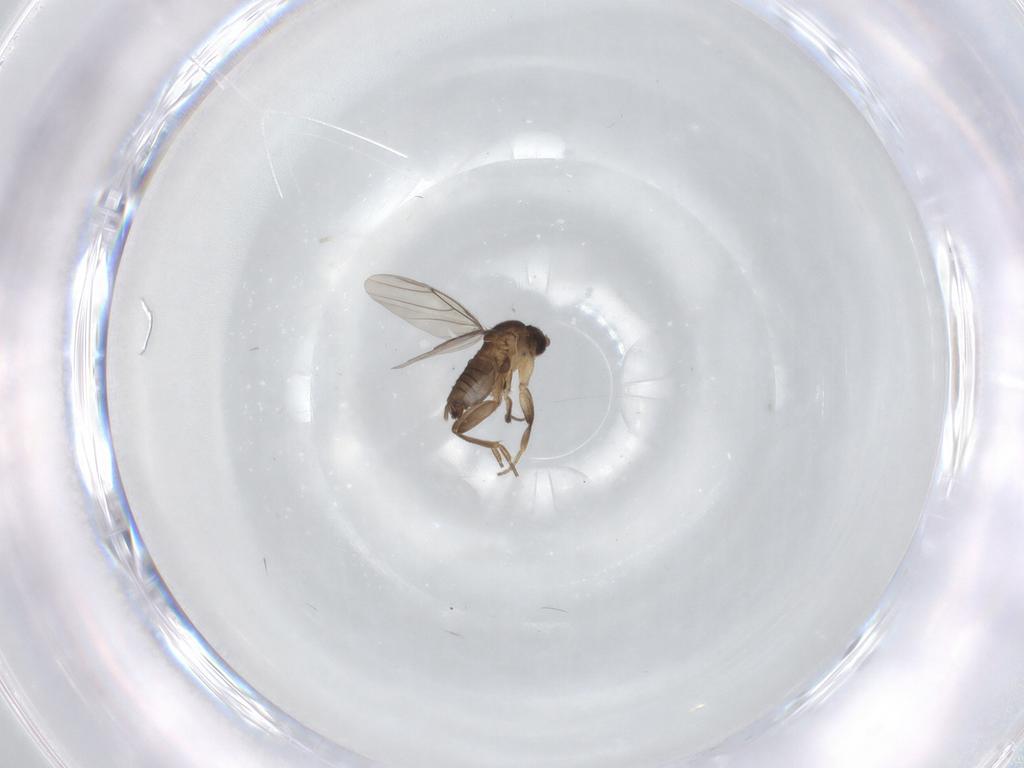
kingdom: Animalia
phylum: Arthropoda
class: Insecta
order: Diptera
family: Phoridae
